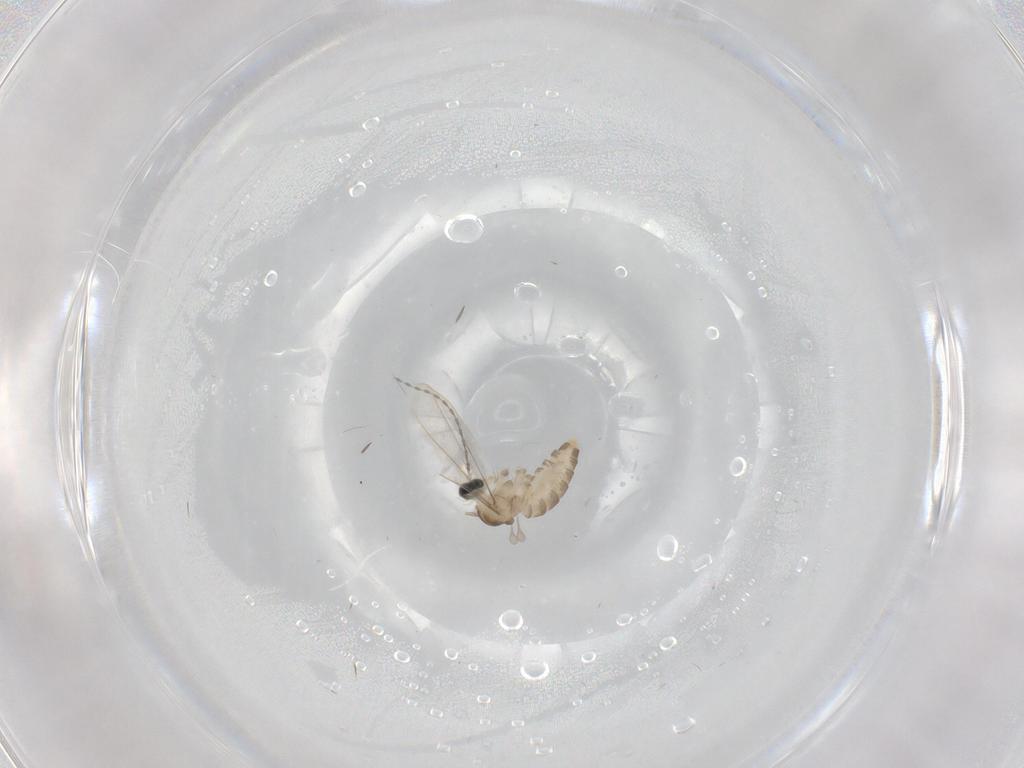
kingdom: Animalia
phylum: Arthropoda
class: Insecta
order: Diptera
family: Cecidomyiidae
